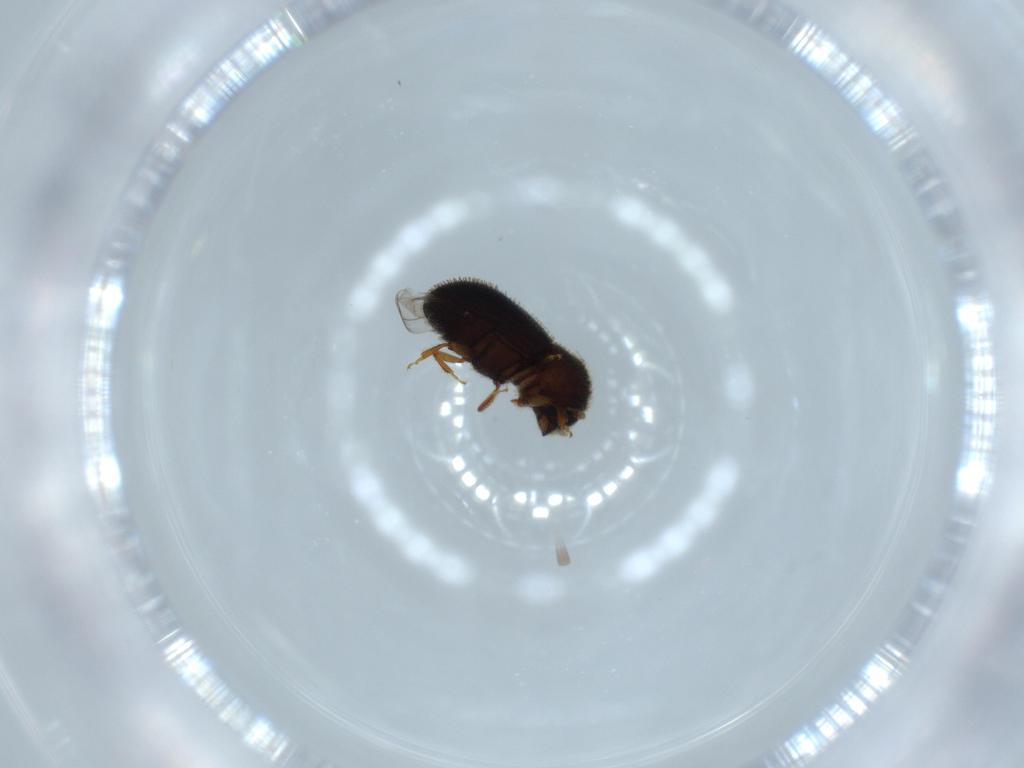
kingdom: Animalia
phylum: Arthropoda
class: Insecta
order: Coleoptera
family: Curculionidae
